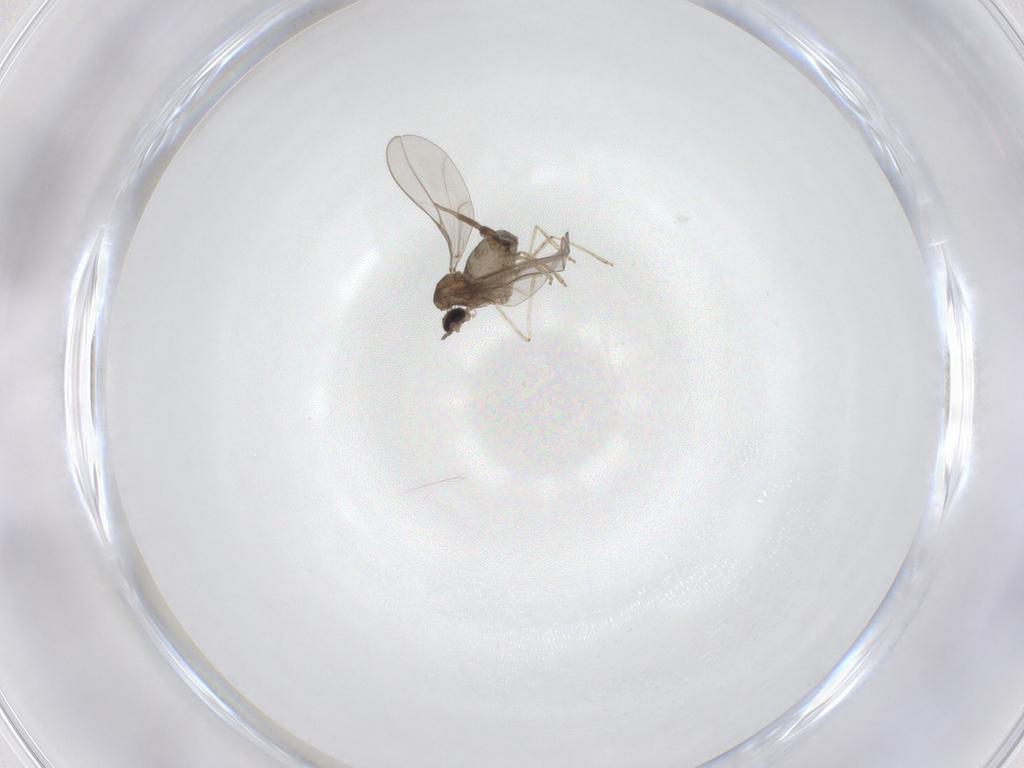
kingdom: Animalia
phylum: Arthropoda
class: Insecta
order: Diptera
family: Cecidomyiidae
